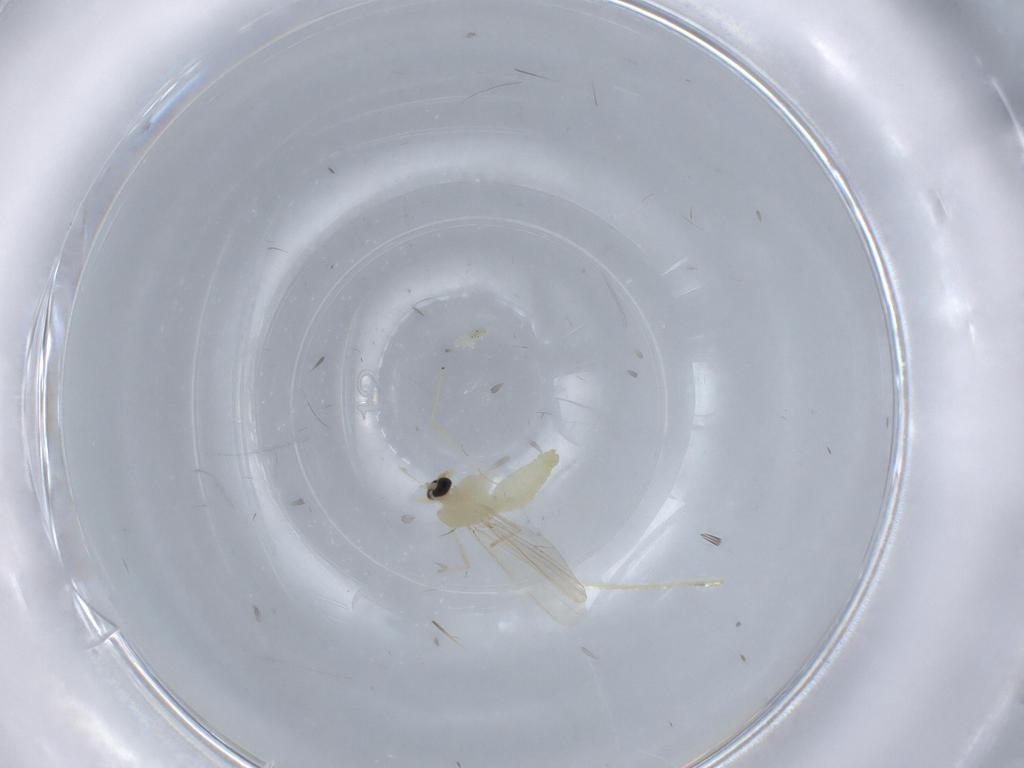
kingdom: Animalia
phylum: Arthropoda
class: Insecta
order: Diptera
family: Chironomidae
